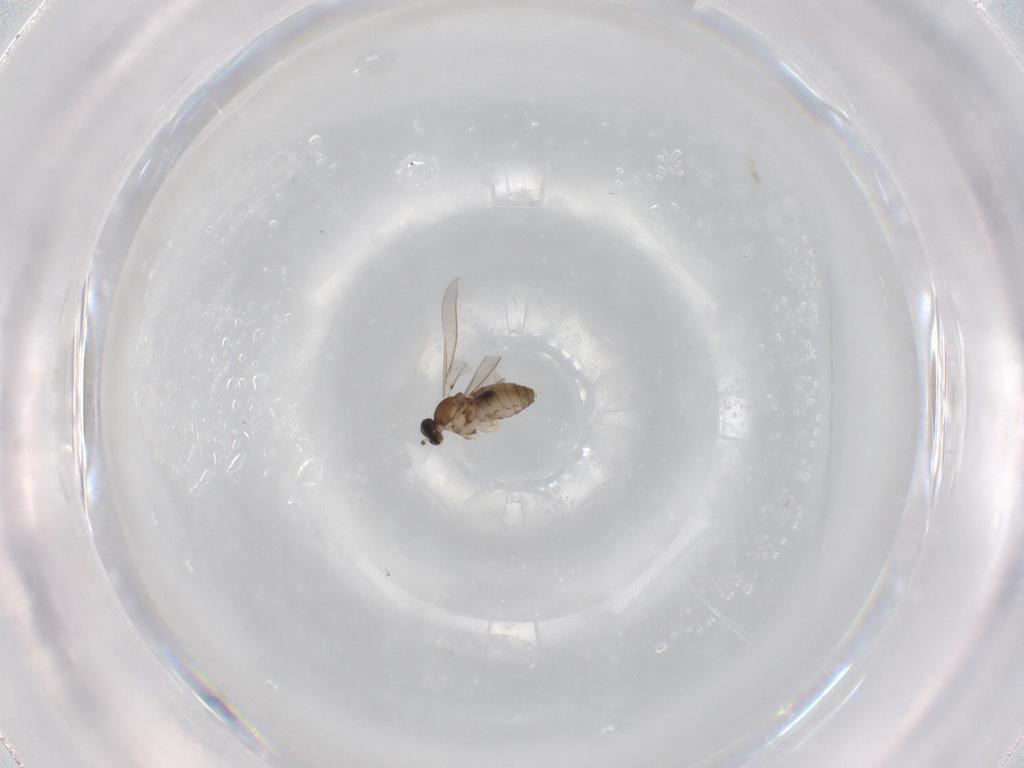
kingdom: Animalia
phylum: Arthropoda
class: Insecta
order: Diptera
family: Cecidomyiidae
